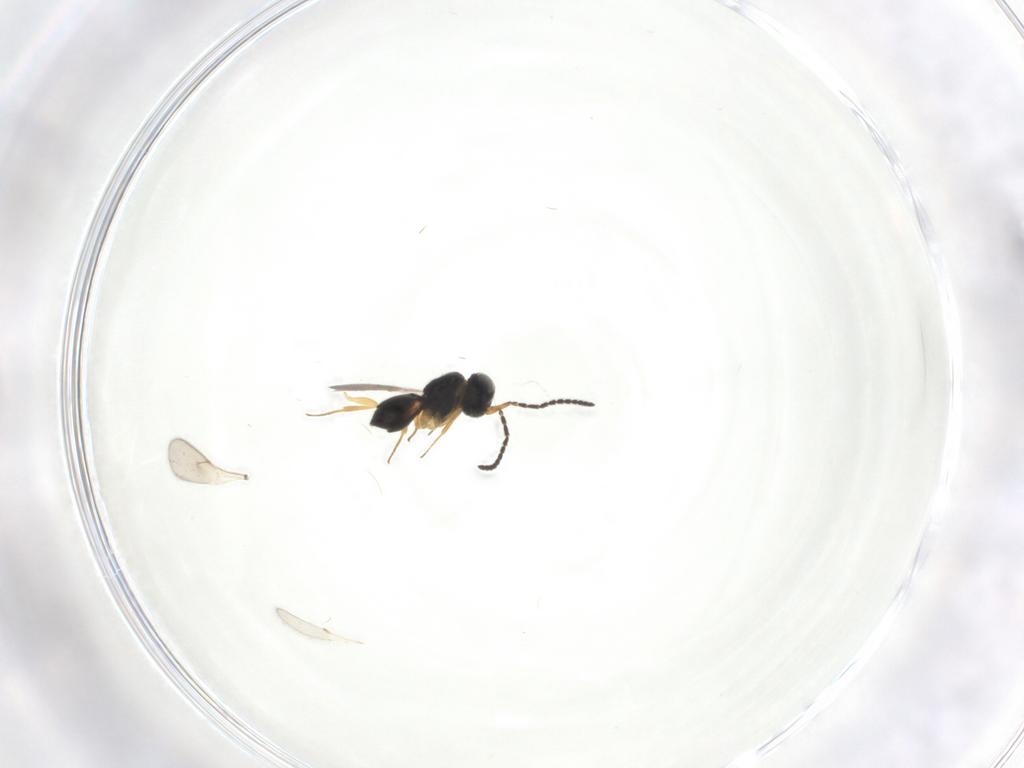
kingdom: Animalia
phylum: Arthropoda
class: Insecta
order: Hymenoptera
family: Scelionidae
